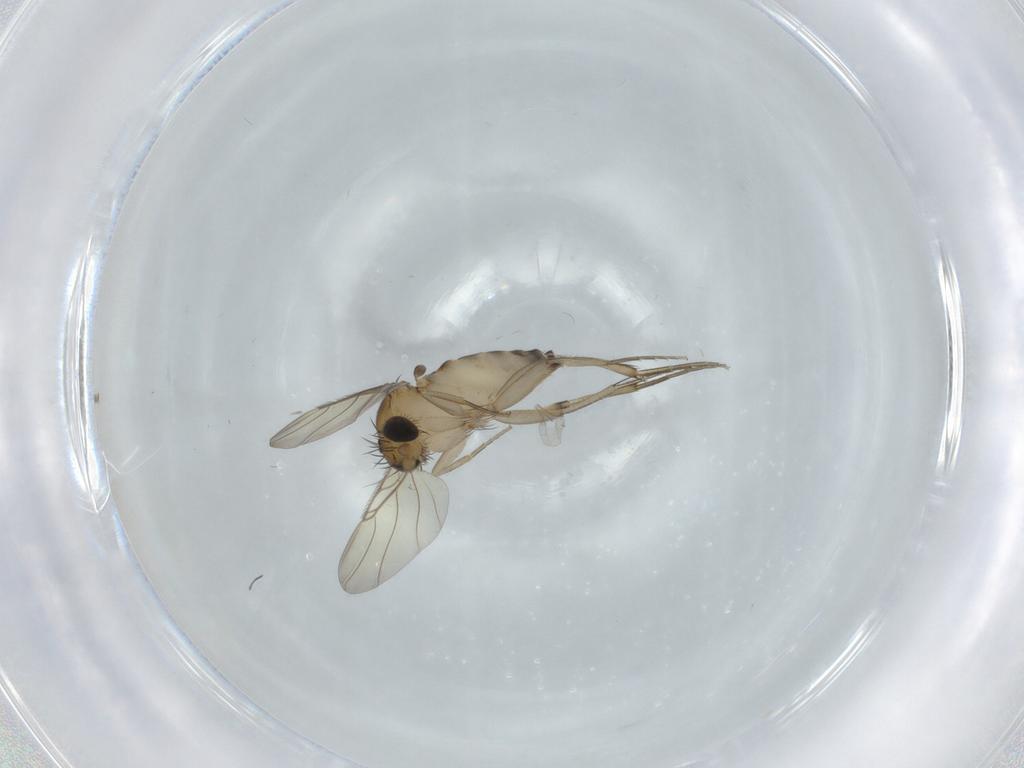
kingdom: Animalia
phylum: Arthropoda
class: Insecta
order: Diptera
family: Phoridae
